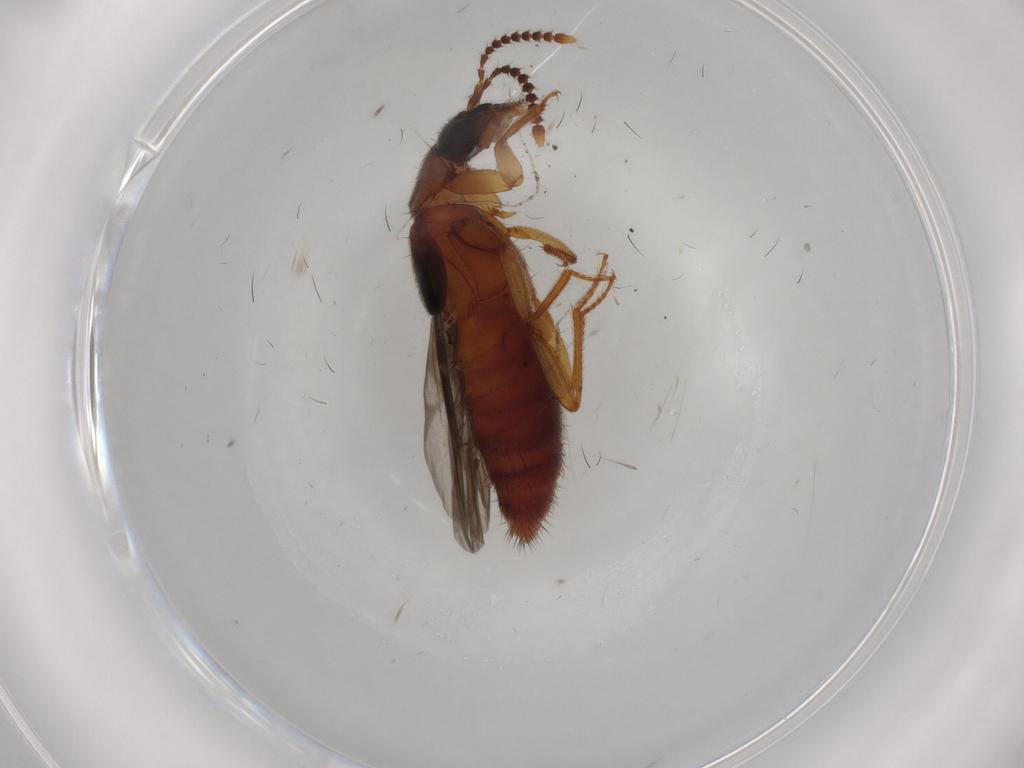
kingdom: Animalia
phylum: Arthropoda
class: Insecta
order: Coleoptera
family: Staphylinidae
